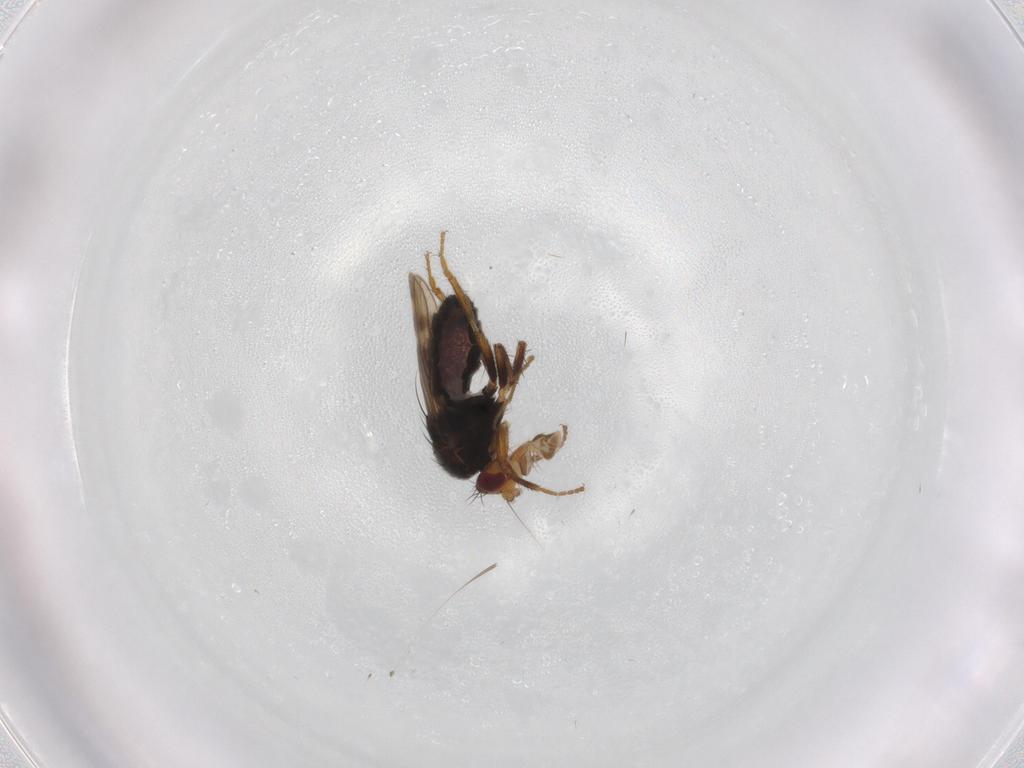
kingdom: Animalia
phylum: Arthropoda
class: Insecta
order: Diptera
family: Sphaeroceridae
